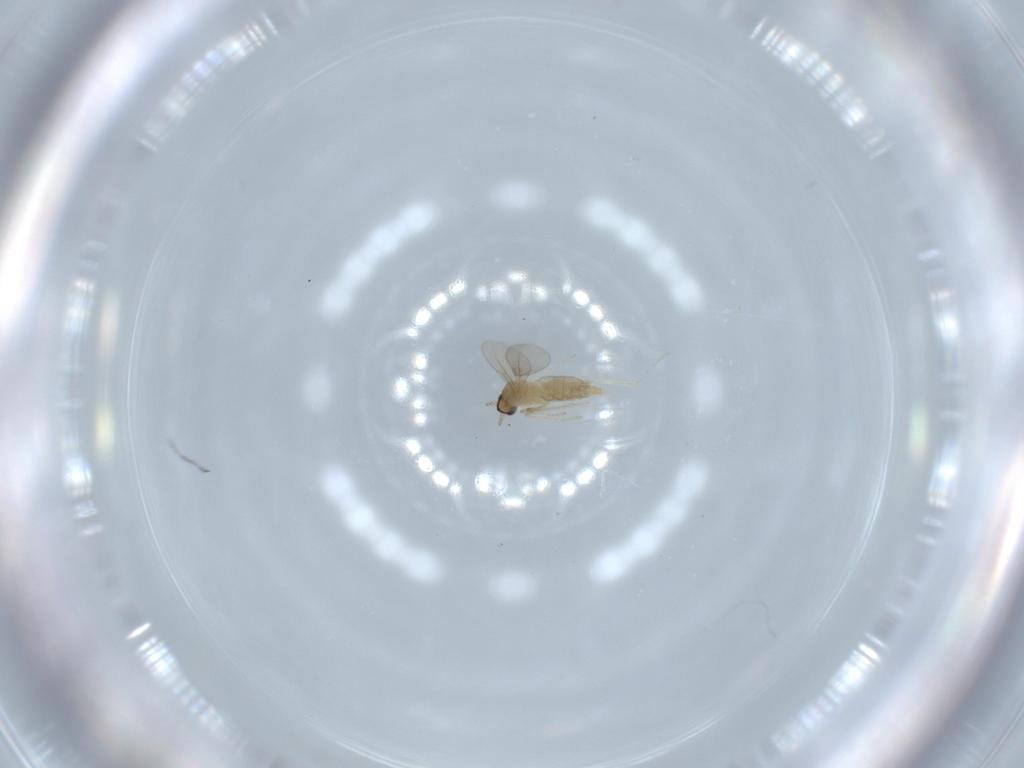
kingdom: Animalia
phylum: Arthropoda
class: Insecta
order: Diptera
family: Cecidomyiidae
